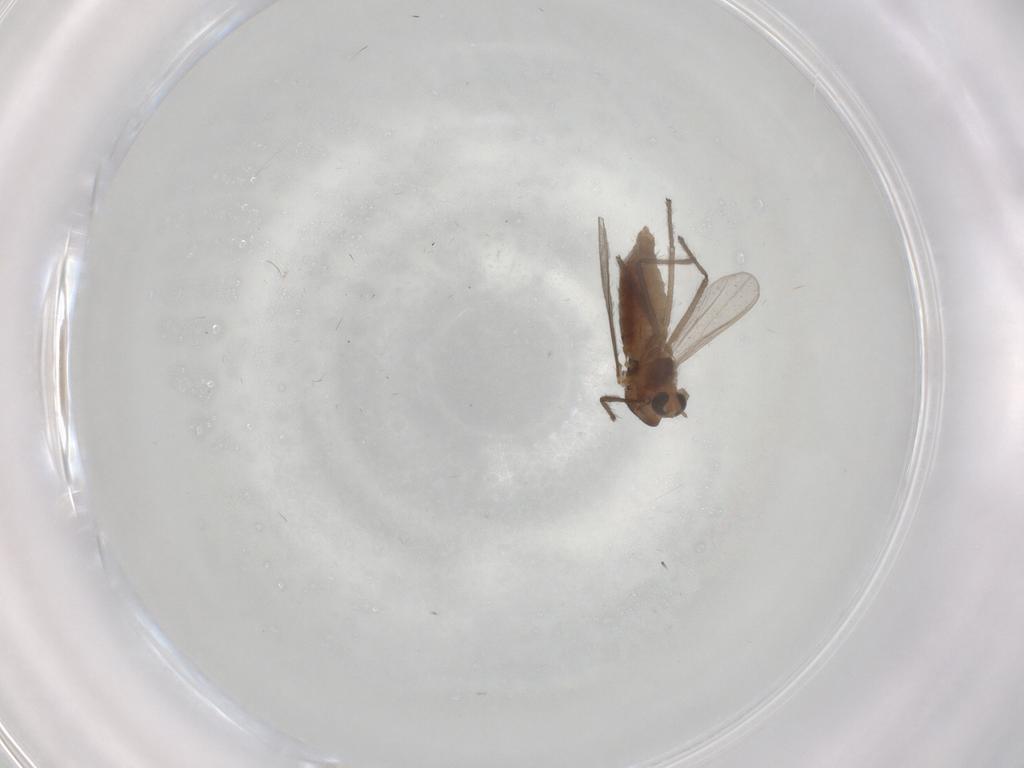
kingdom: Animalia
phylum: Arthropoda
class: Insecta
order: Diptera
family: Chironomidae
